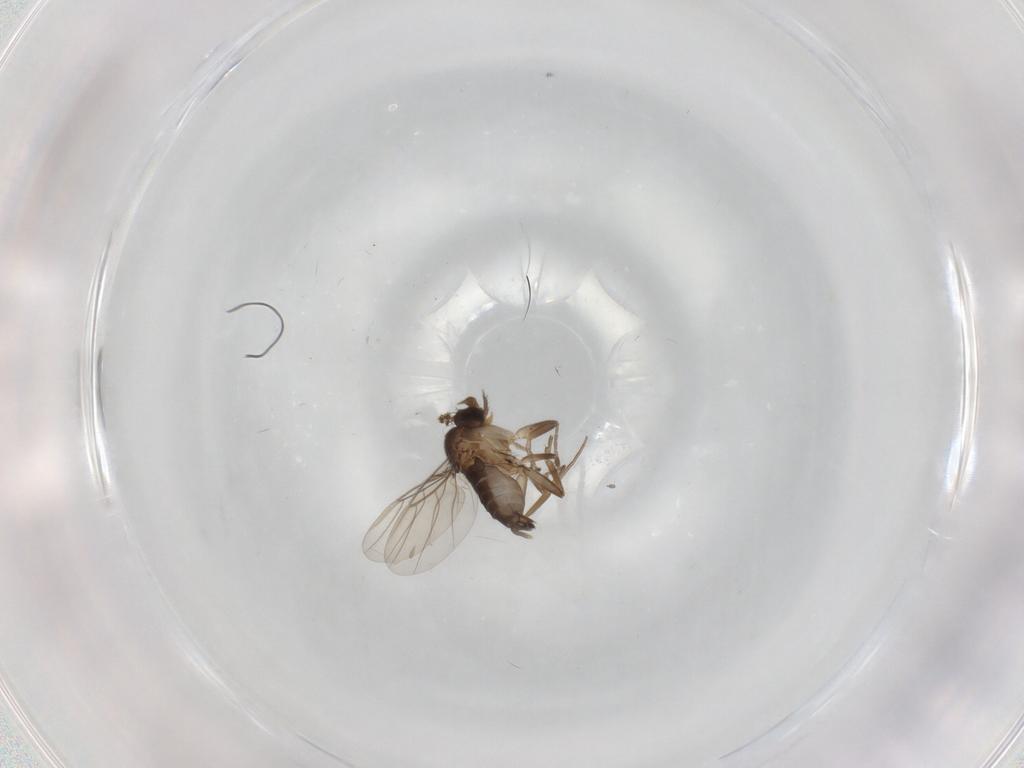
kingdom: Animalia
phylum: Arthropoda
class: Insecta
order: Diptera
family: Phoridae
